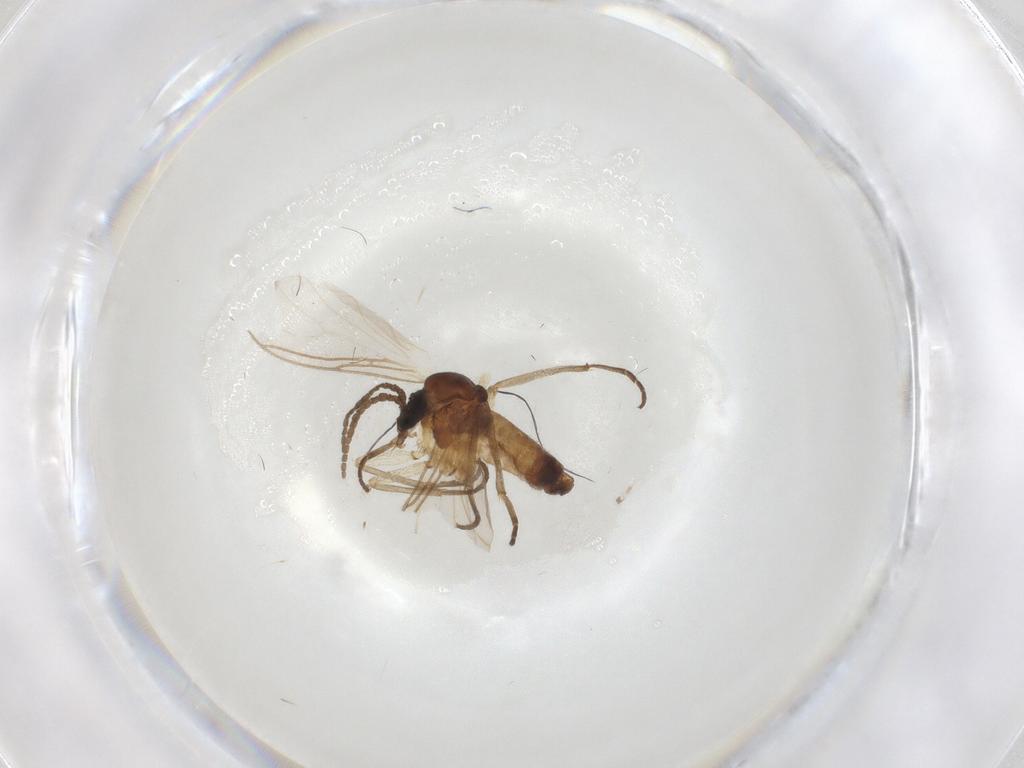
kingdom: Animalia
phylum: Arthropoda
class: Insecta
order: Diptera
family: Sciaridae
